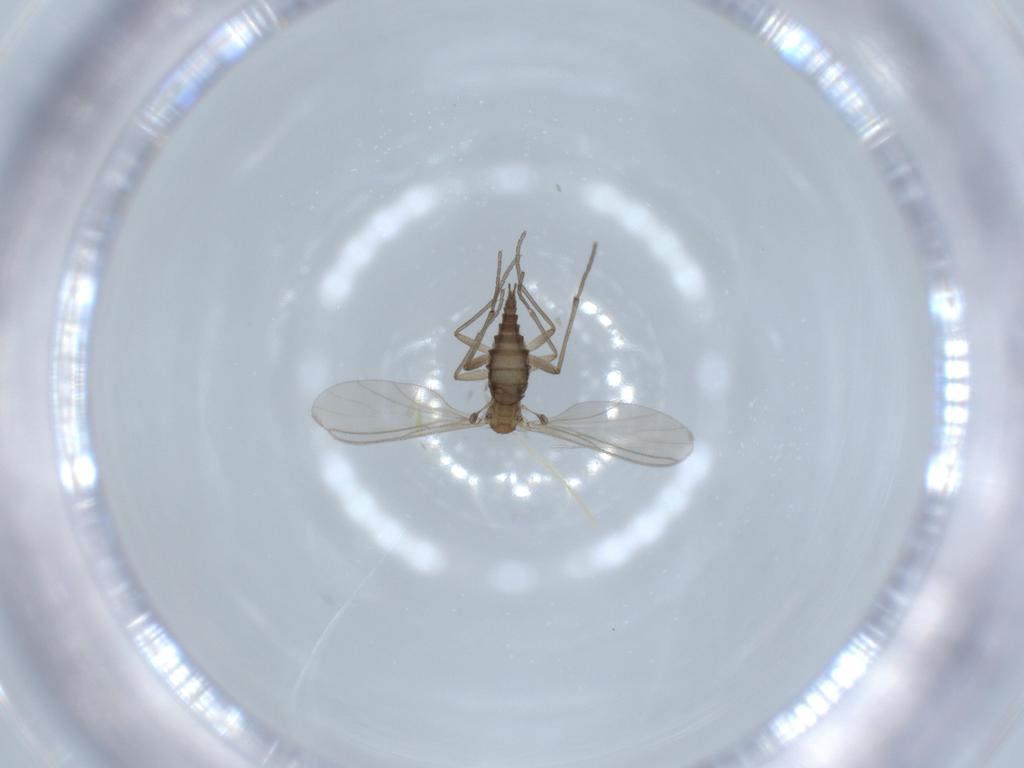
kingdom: Animalia
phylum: Arthropoda
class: Insecta
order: Diptera
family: Sciaridae
